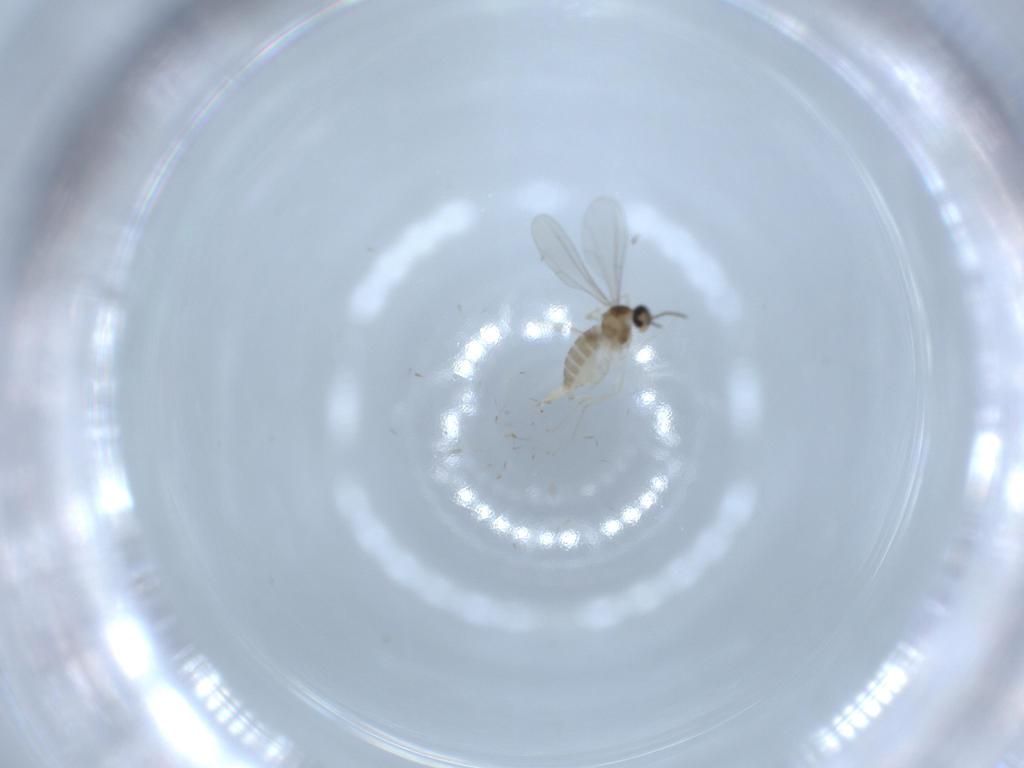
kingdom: Animalia
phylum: Arthropoda
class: Insecta
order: Diptera
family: Cecidomyiidae
